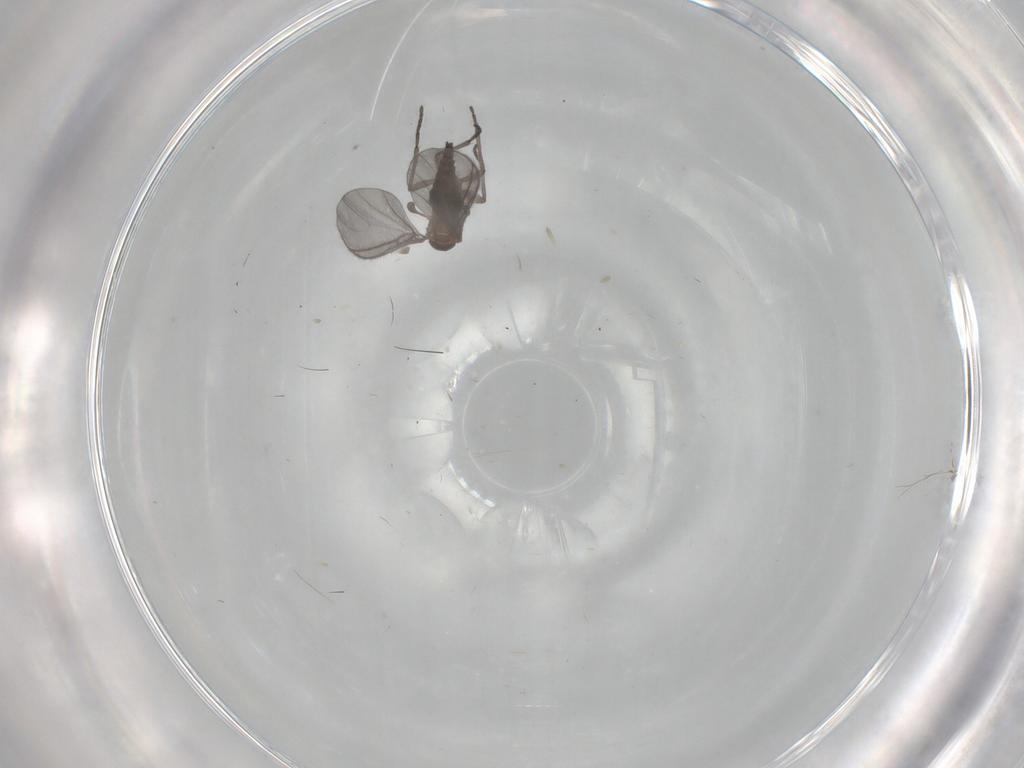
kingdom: Animalia
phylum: Arthropoda
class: Insecta
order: Diptera
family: Sciaridae
